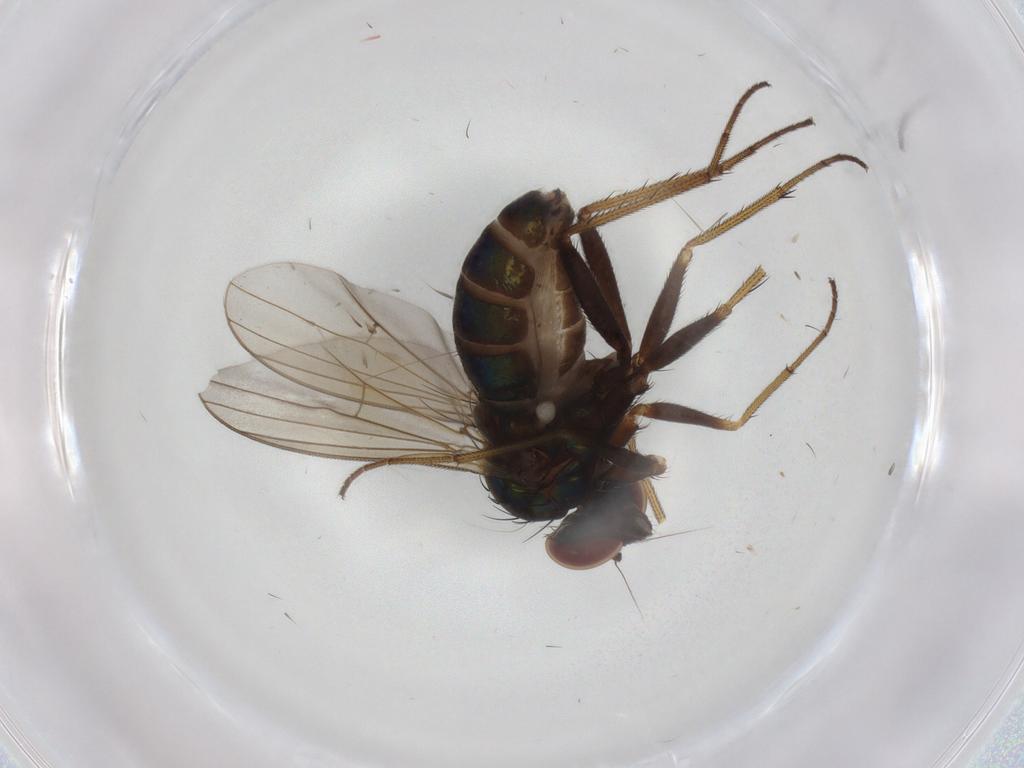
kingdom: Animalia
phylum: Arthropoda
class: Insecta
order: Diptera
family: Dolichopodidae
